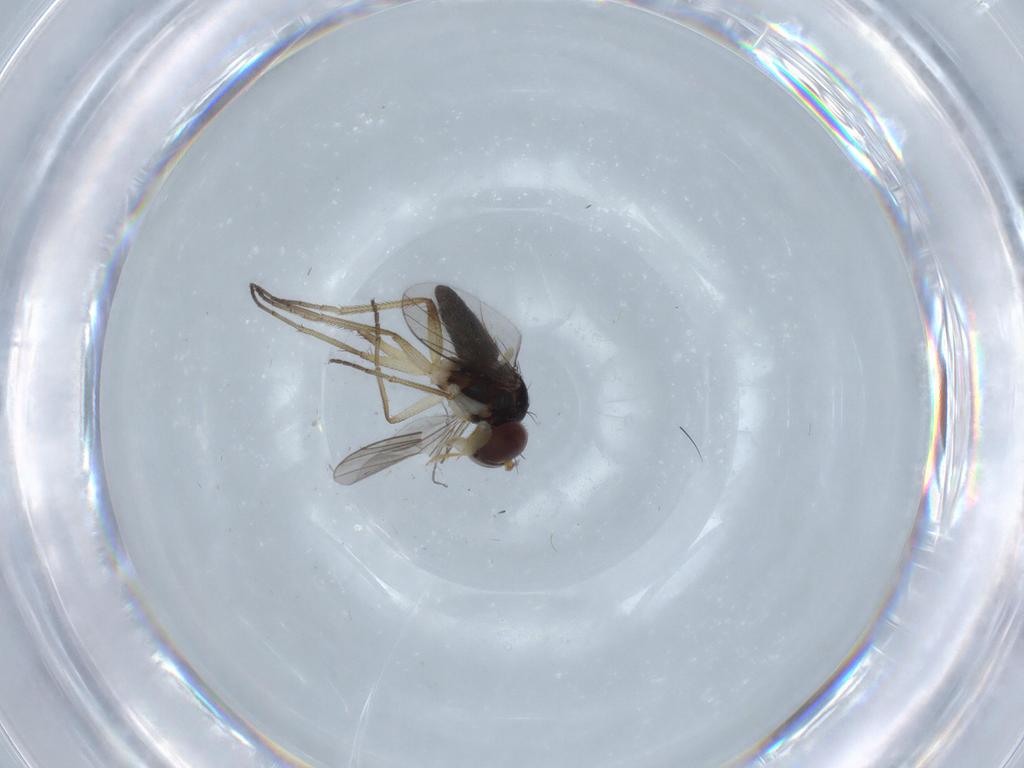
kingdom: Animalia
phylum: Arthropoda
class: Insecta
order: Diptera
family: Dolichopodidae
